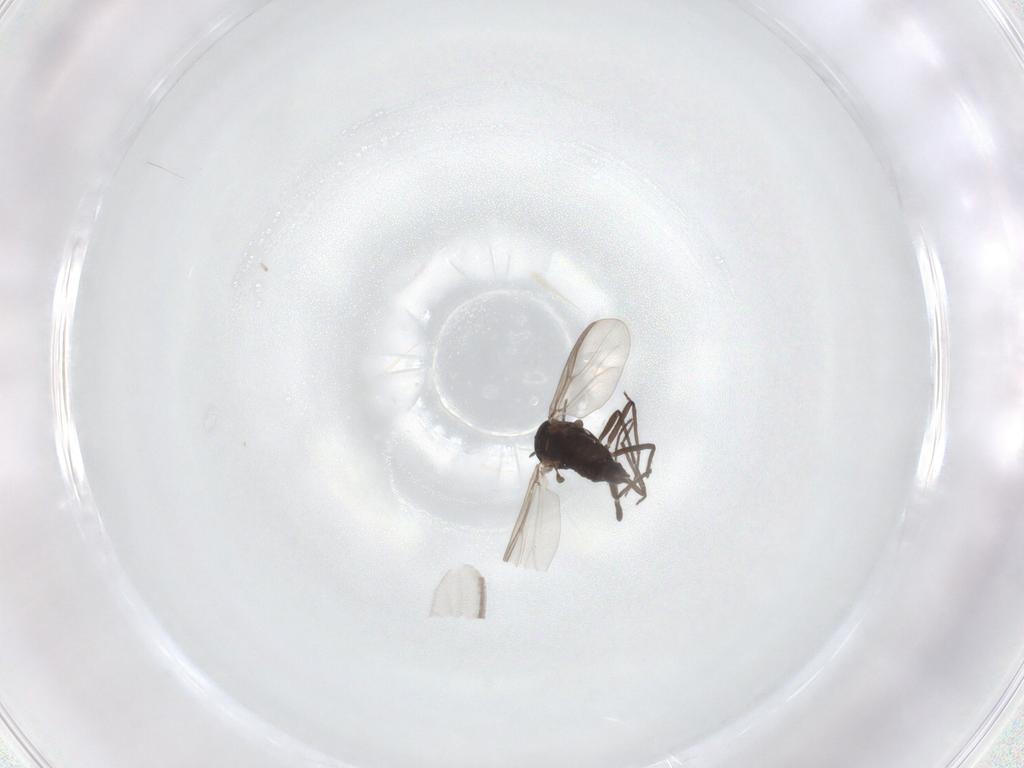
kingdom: Animalia
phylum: Arthropoda
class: Insecta
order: Diptera
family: Chironomidae
